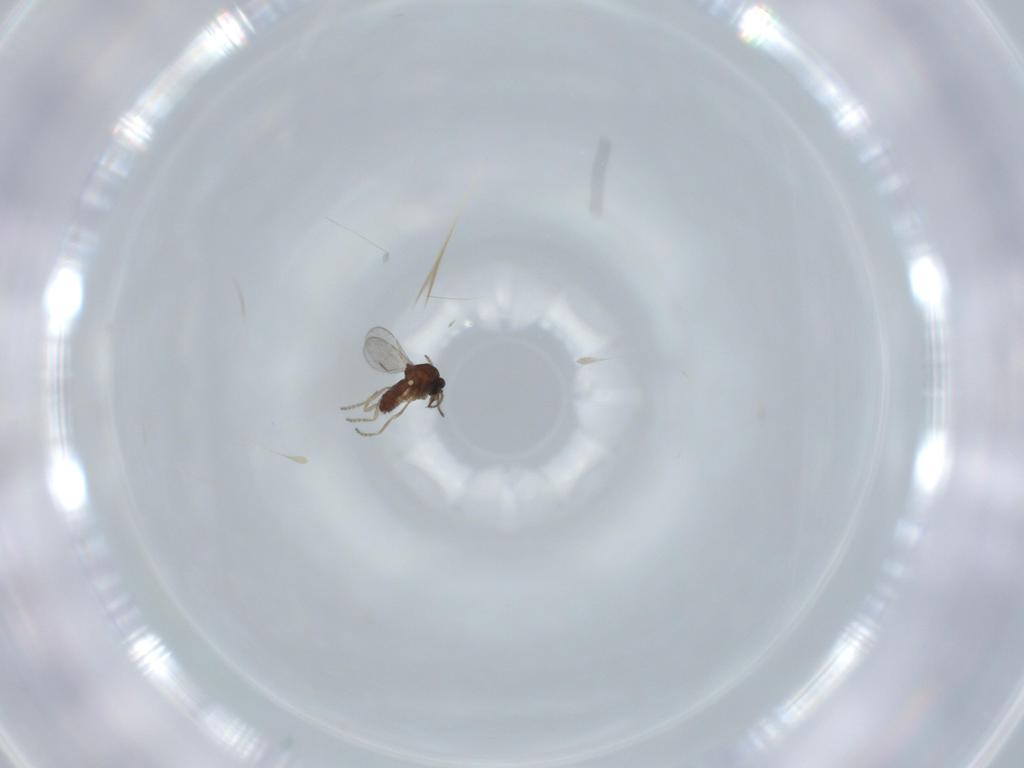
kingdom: Animalia
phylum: Arthropoda
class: Insecta
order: Diptera
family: Ceratopogonidae
